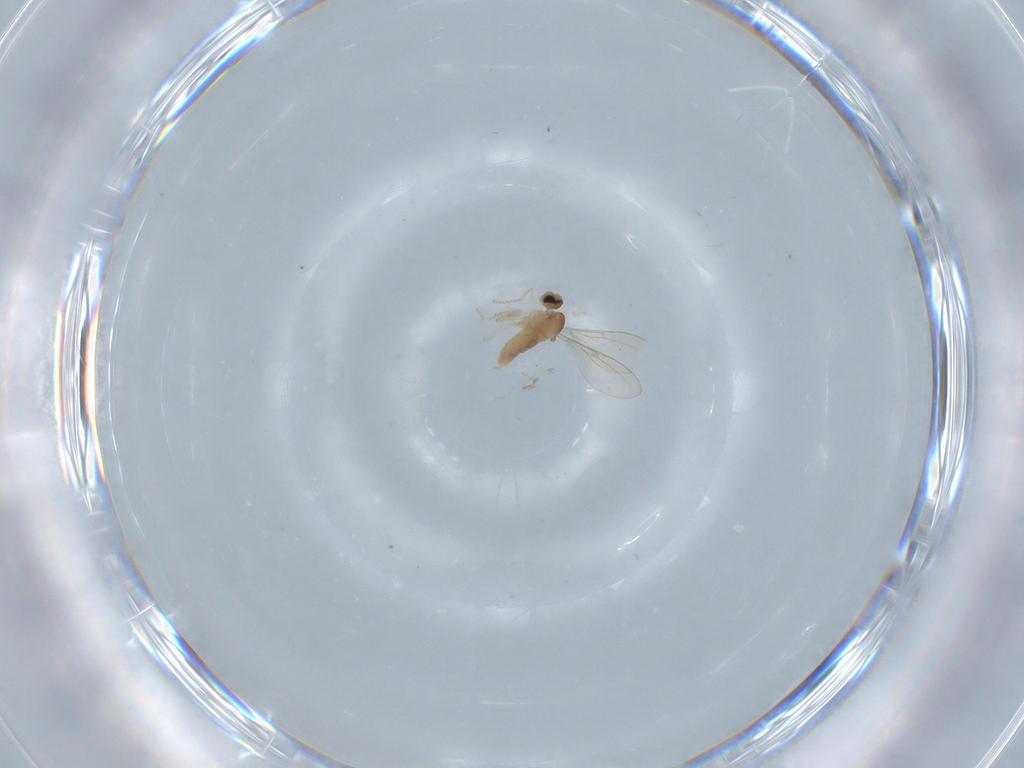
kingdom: Animalia
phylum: Arthropoda
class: Insecta
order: Diptera
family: Cecidomyiidae
